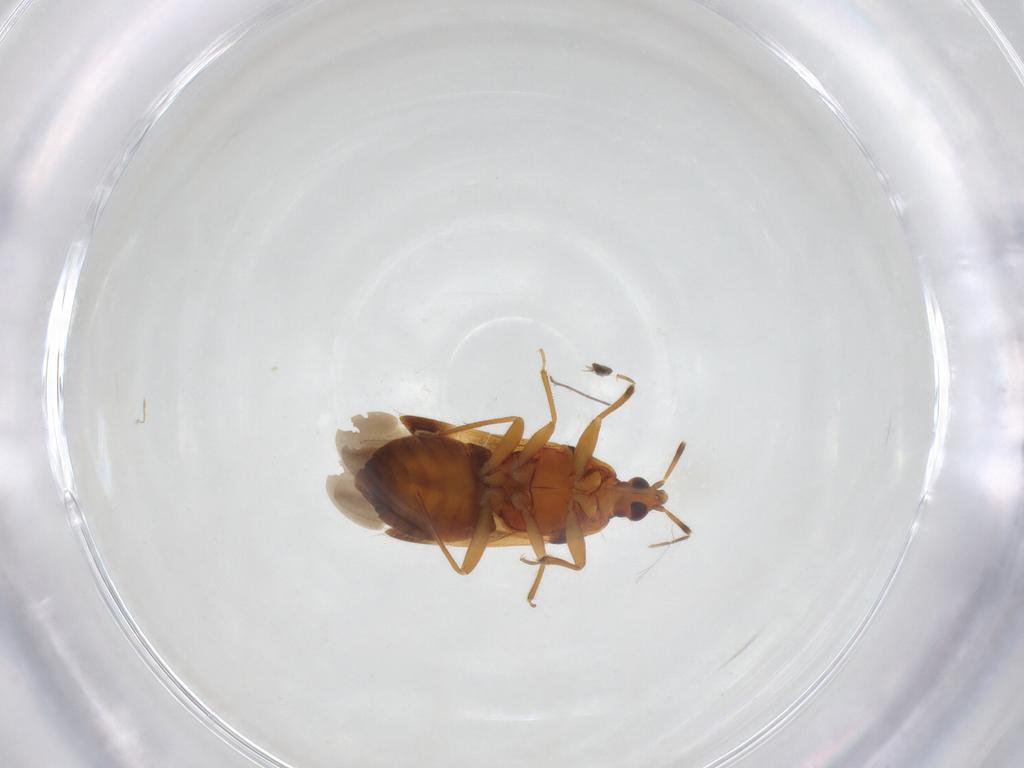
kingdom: Animalia
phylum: Arthropoda
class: Insecta
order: Hemiptera
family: Anthocoridae
